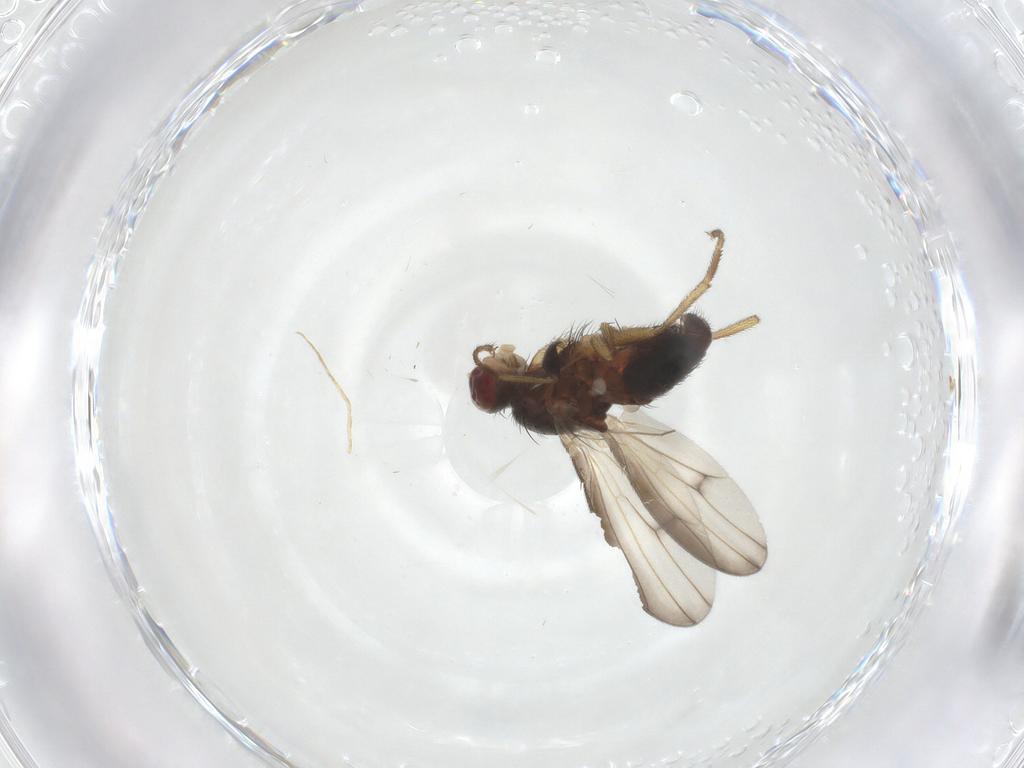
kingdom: Animalia
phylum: Arthropoda
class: Insecta
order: Diptera
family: Heleomyzidae
